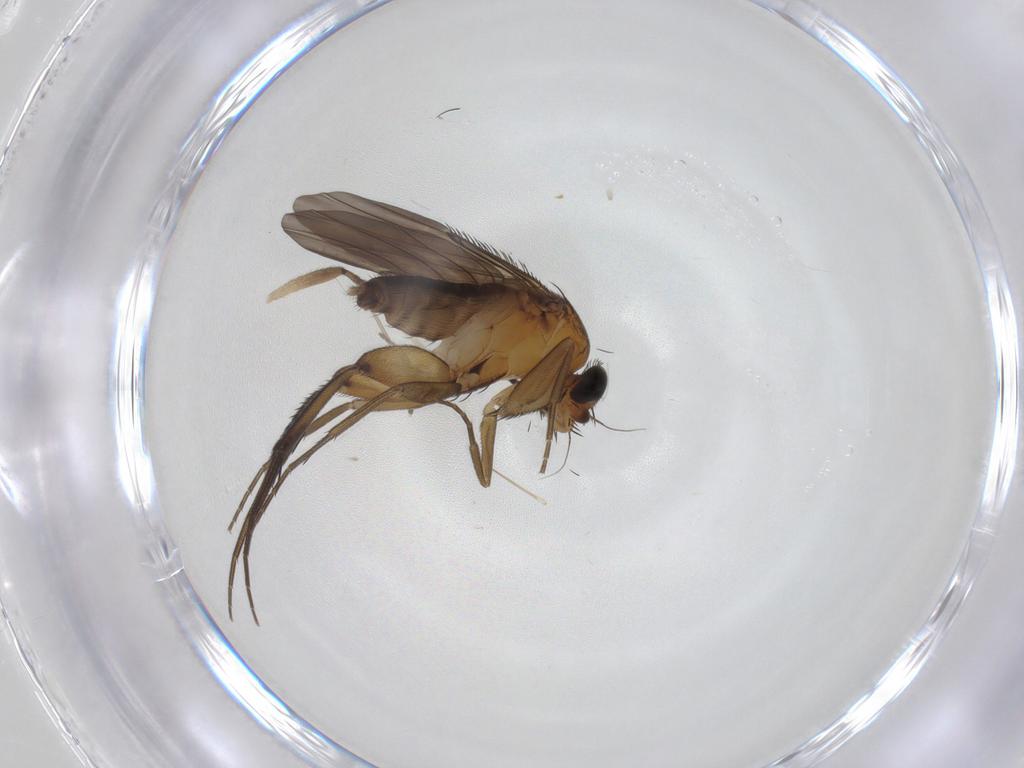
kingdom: Animalia
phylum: Arthropoda
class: Insecta
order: Diptera
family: Phoridae
